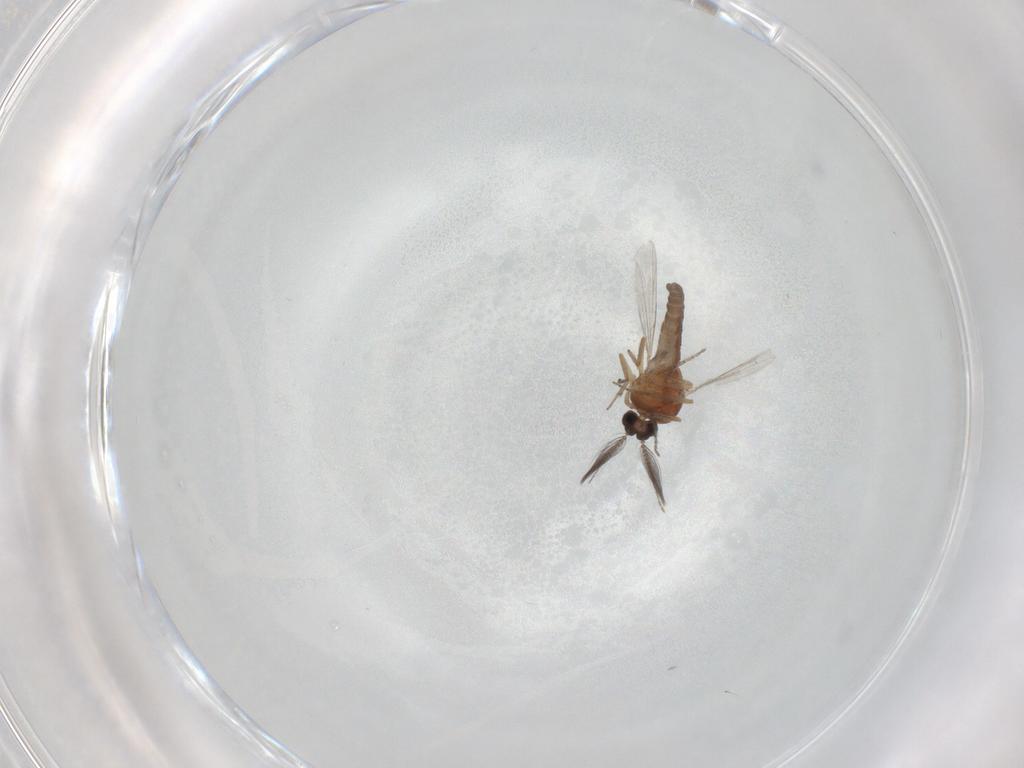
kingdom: Animalia
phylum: Arthropoda
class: Insecta
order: Diptera
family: Ceratopogonidae
